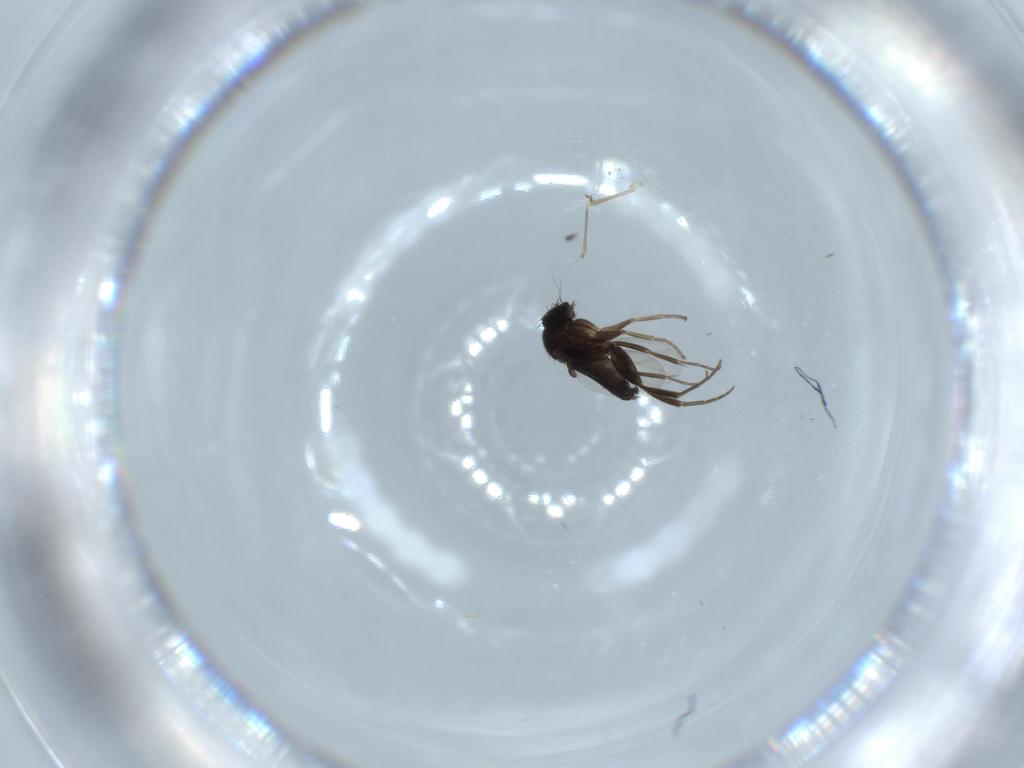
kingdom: Animalia
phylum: Arthropoda
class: Insecta
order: Diptera
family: Phoridae
